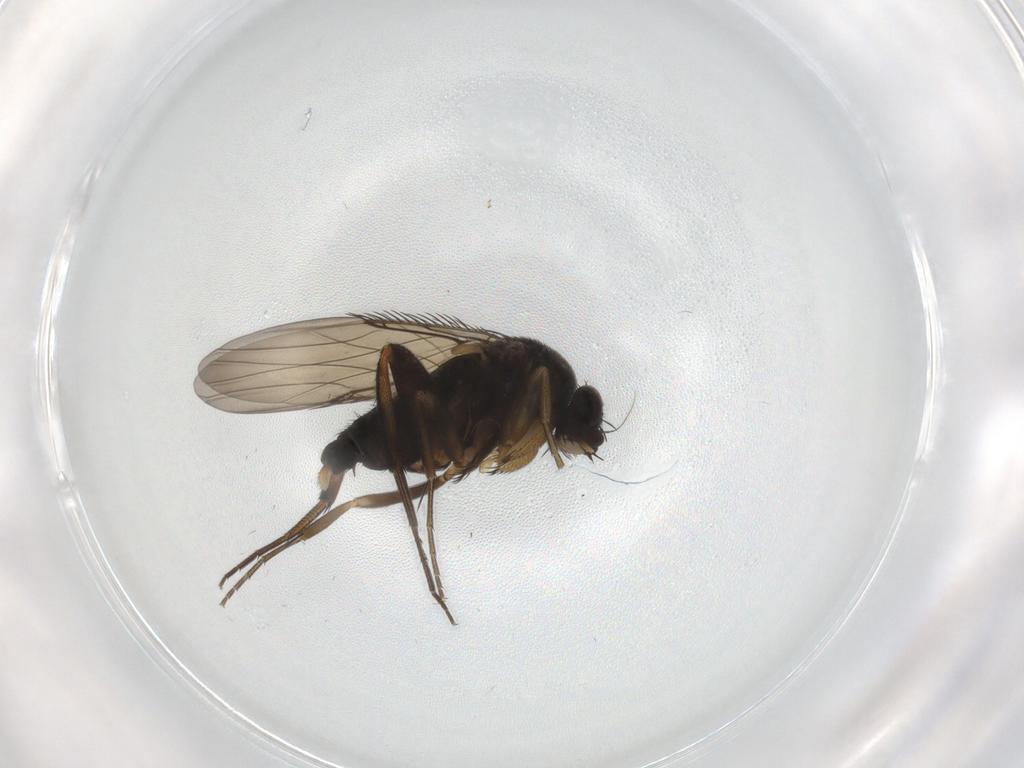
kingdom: Animalia
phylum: Arthropoda
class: Insecta
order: Diptera
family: Phoridae
